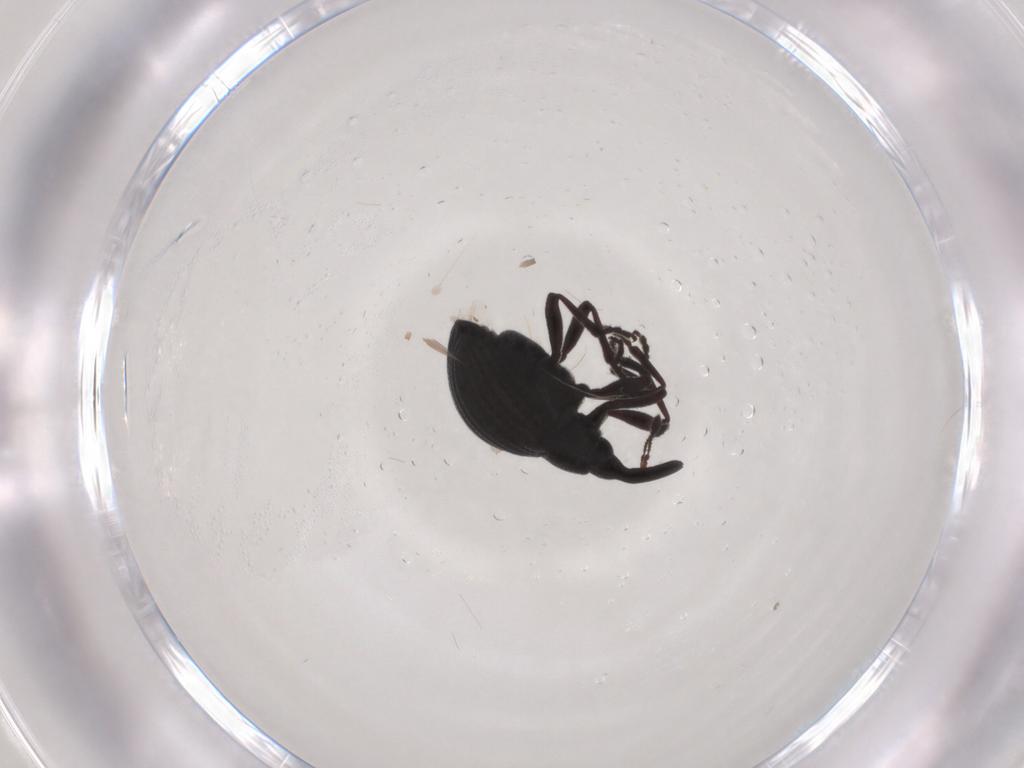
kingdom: Animalia
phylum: Arthropoda
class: Insecta
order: Coleoptera
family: Brentidae
